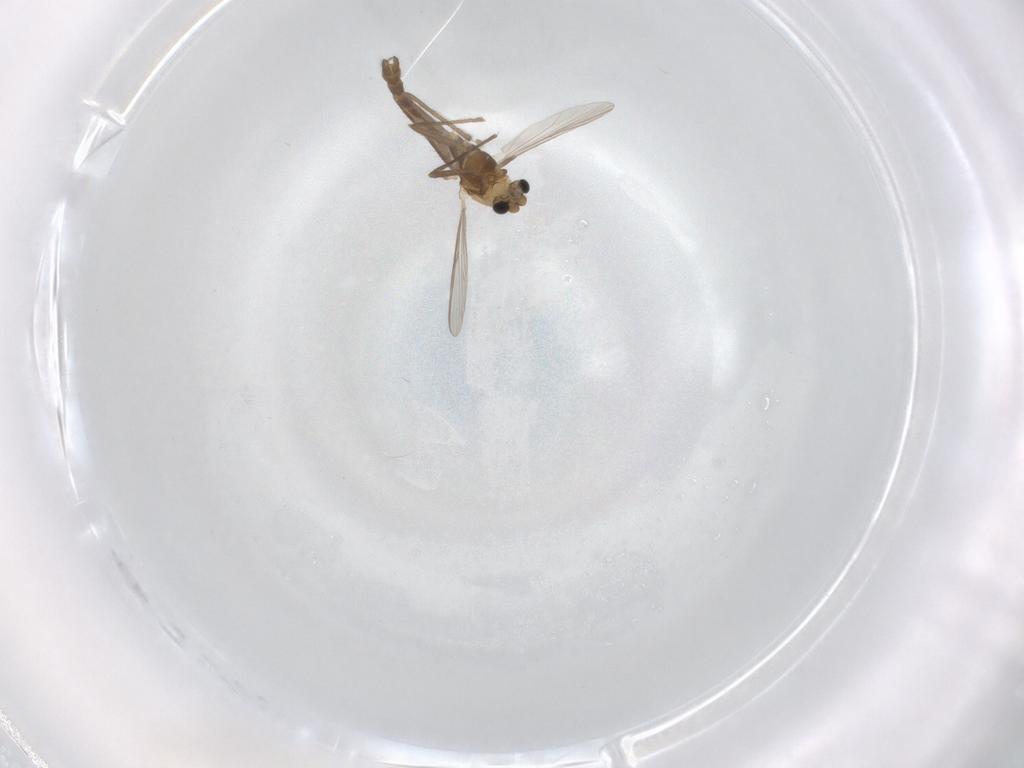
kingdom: Animalia
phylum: Arthropoda
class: Insecta
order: Diptera
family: Chironomidae
